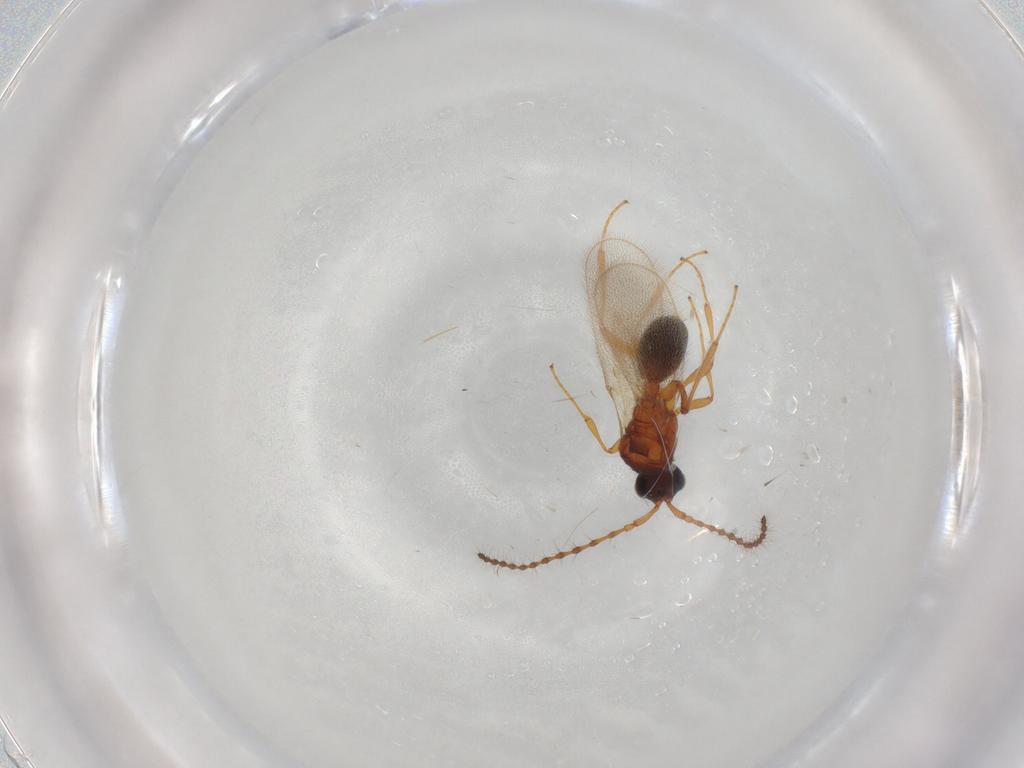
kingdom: Animalia
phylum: Arthropoda
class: Insecta
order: Hymenoptera
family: Diapriidae
